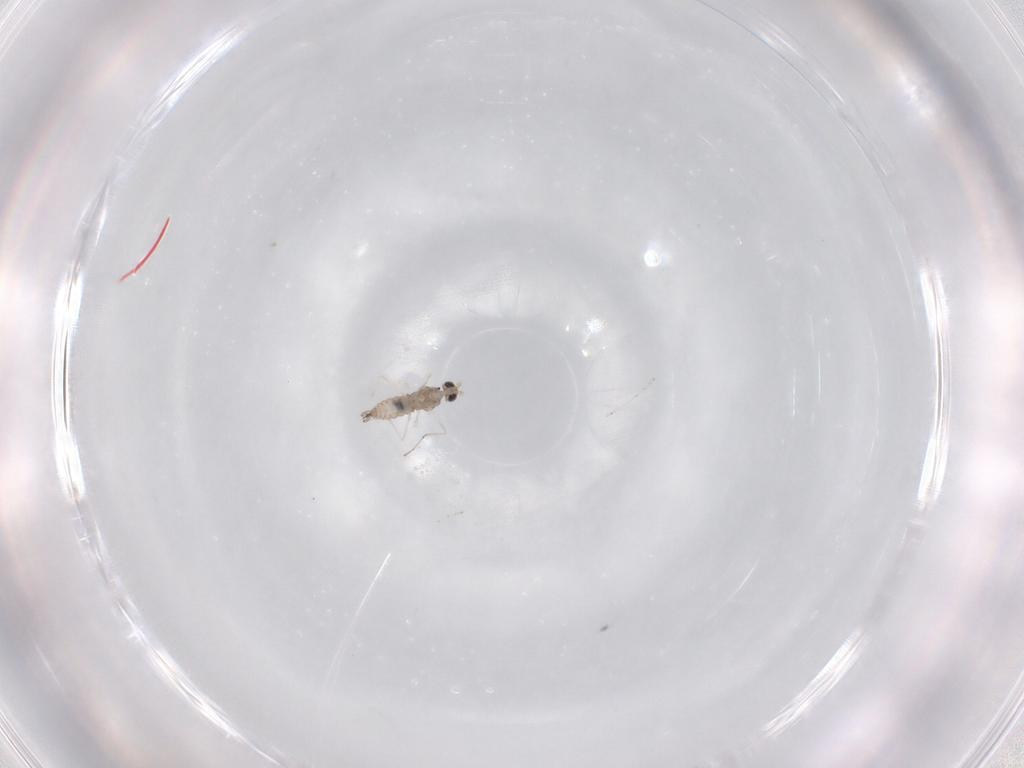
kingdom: Animalia
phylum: Arthropoda
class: Insecta
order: Diptera
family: Cecidomyiidae
